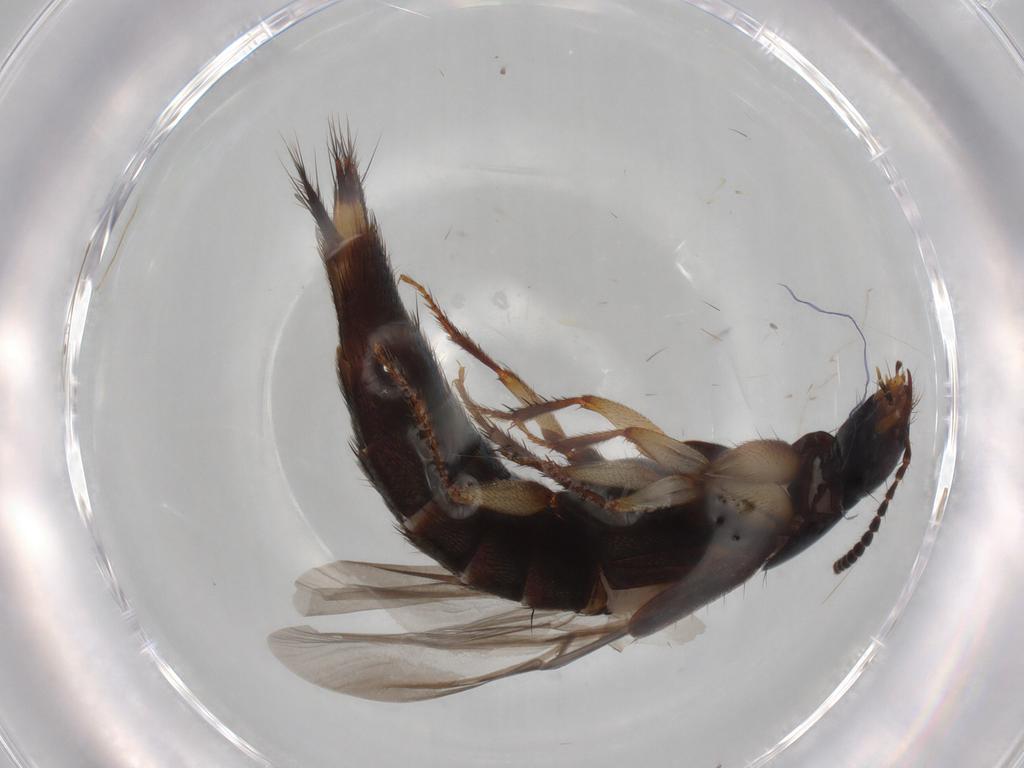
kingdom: Animalia
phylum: Arthropoda
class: Insecta
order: Coleoptera
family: Staphylinidae
